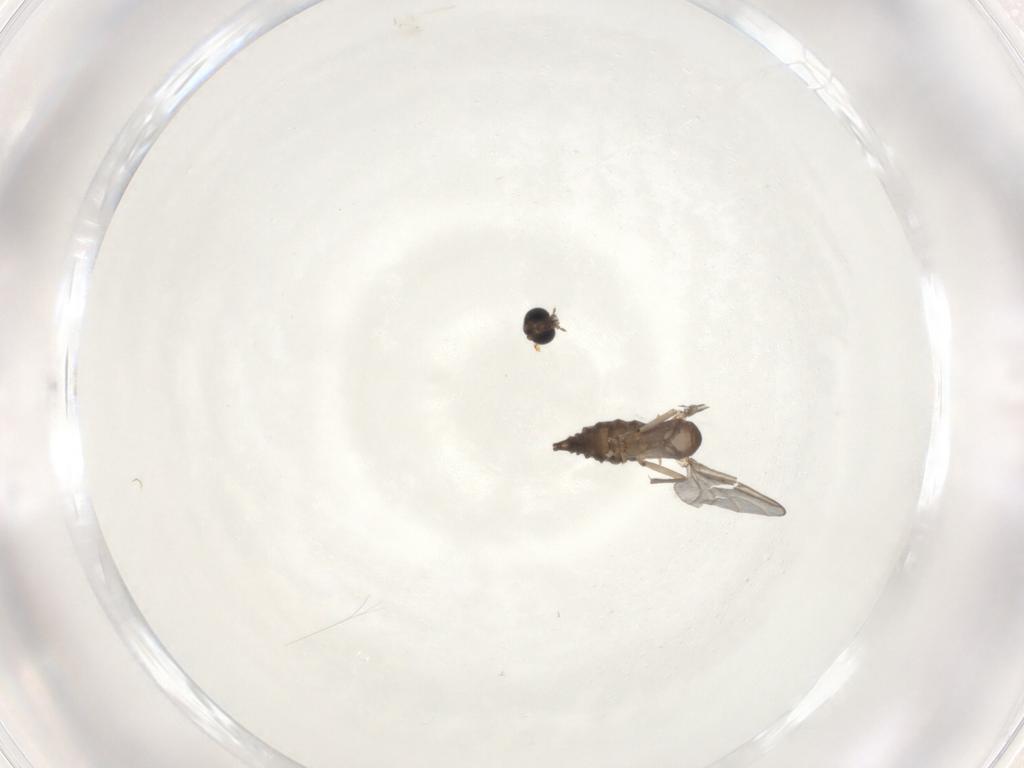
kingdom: Animalia
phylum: Arthropoda
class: Insecta
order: Diptera
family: Sciaridae
